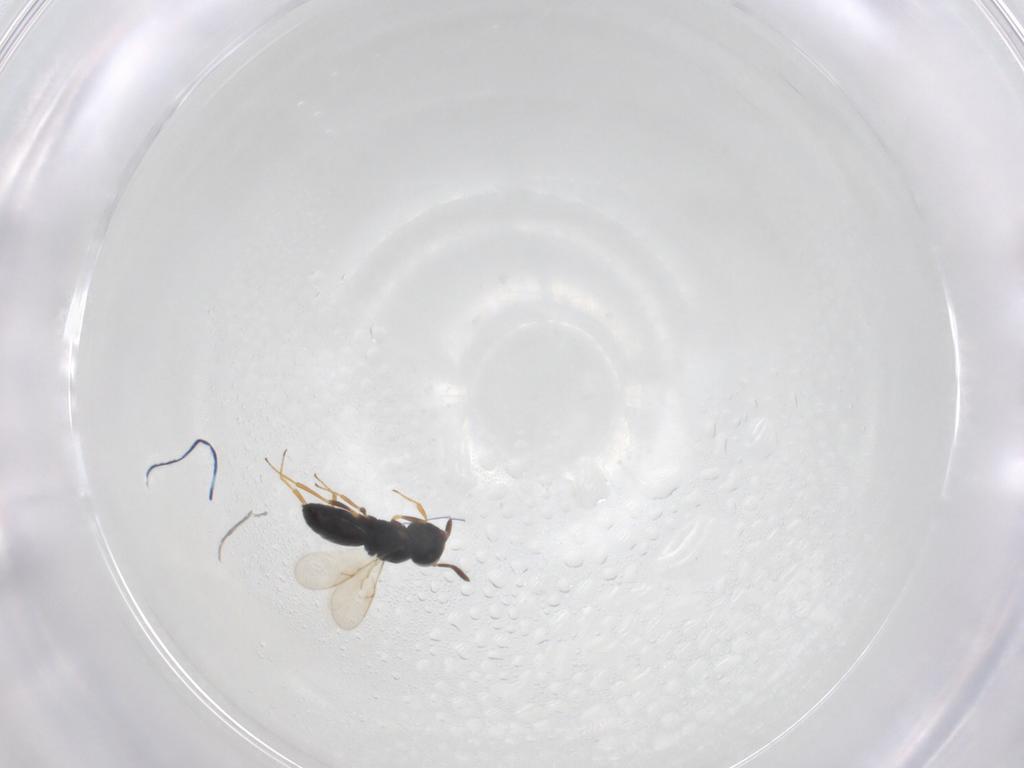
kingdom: Animalia
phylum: Arthropoda
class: Insecta
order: Hymenoptera
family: Scelionidae
